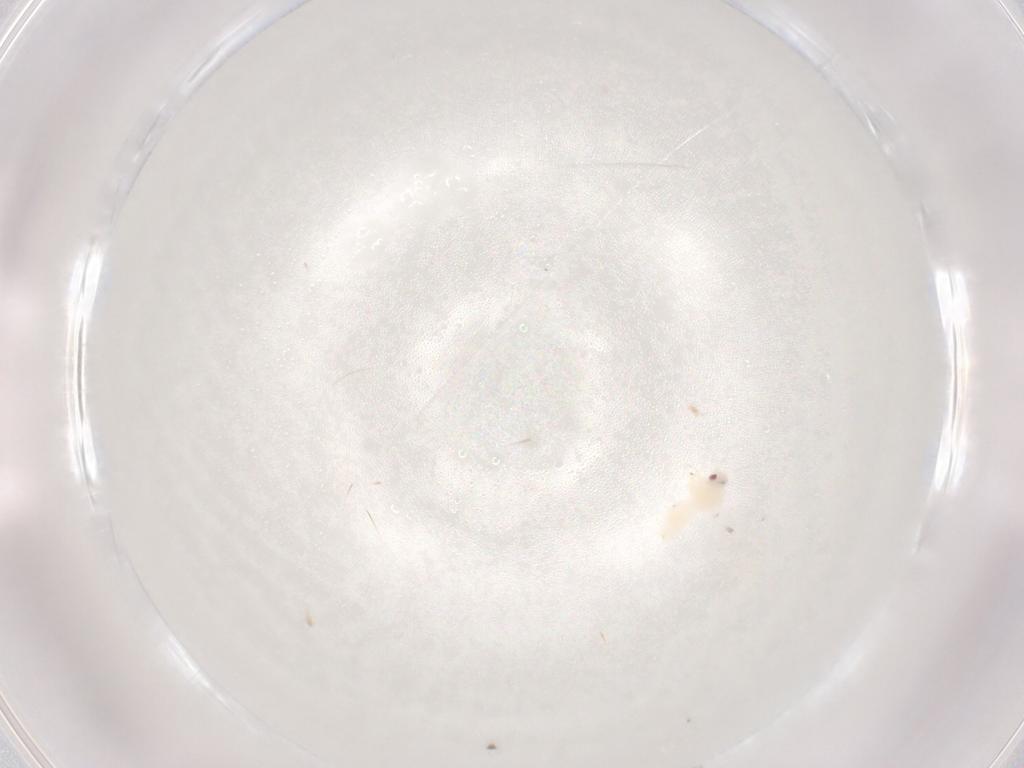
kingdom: Animalia
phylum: Arthropoda
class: Insecta
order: Hemiptera
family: Aleyrodidae
